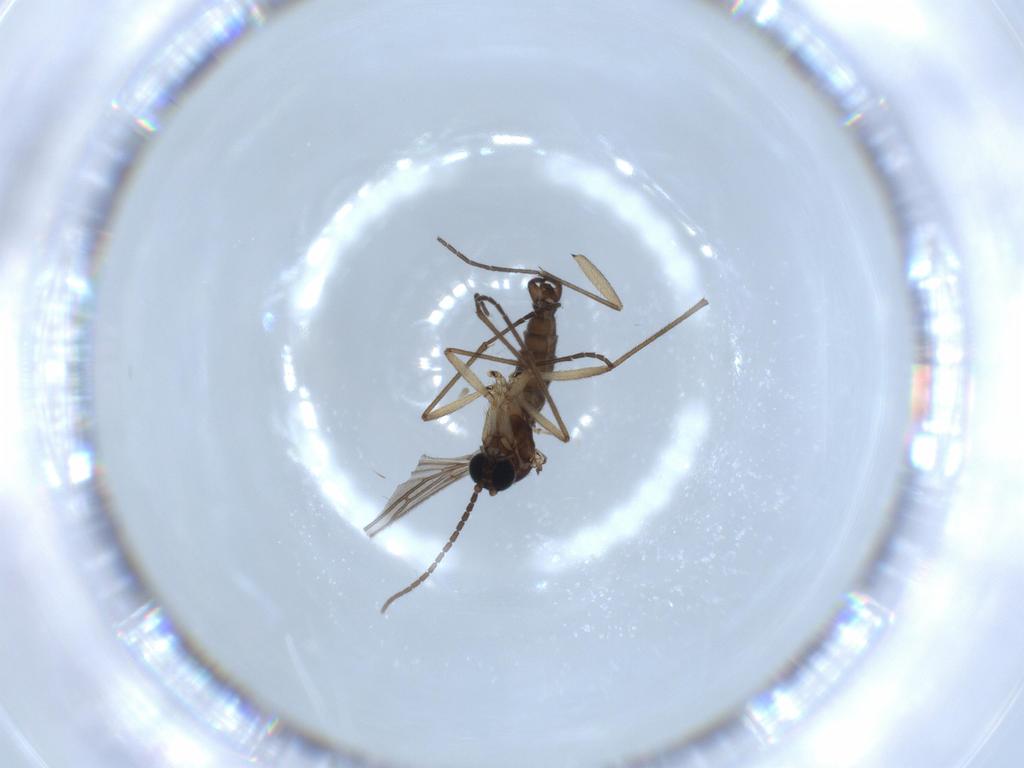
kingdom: Animalia
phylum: Arthropoda
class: Insecta
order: Diptera
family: Sciaridae
